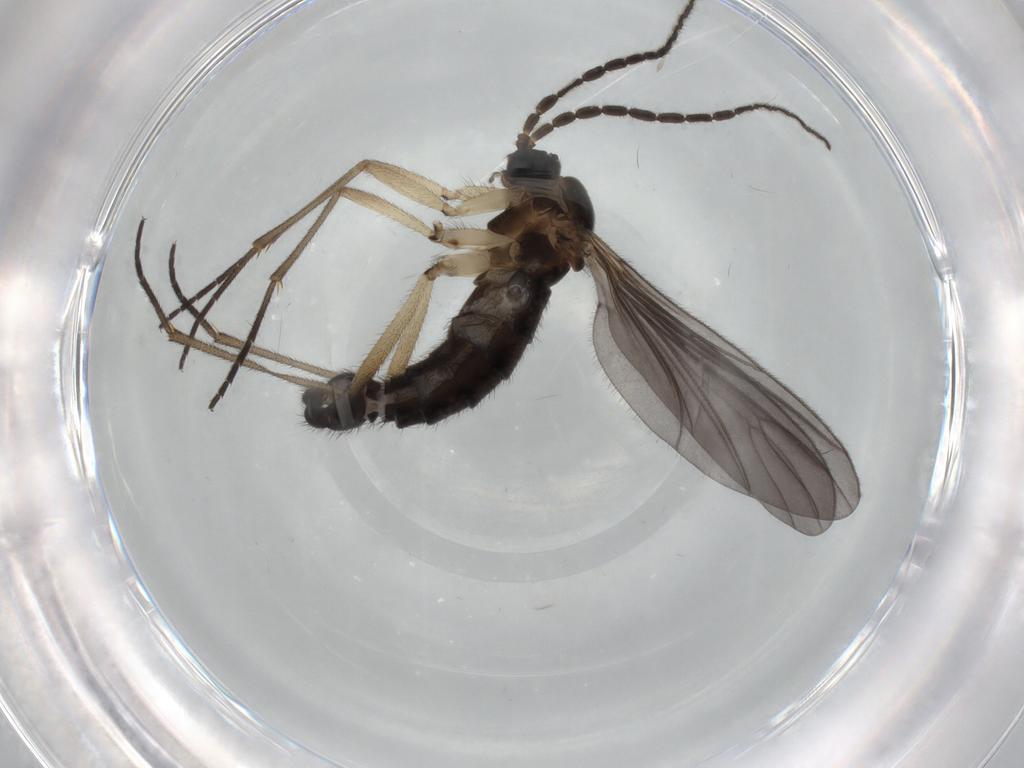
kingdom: Animalia
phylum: Arthropoda
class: Insecta
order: Diptera
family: Sciaridae
